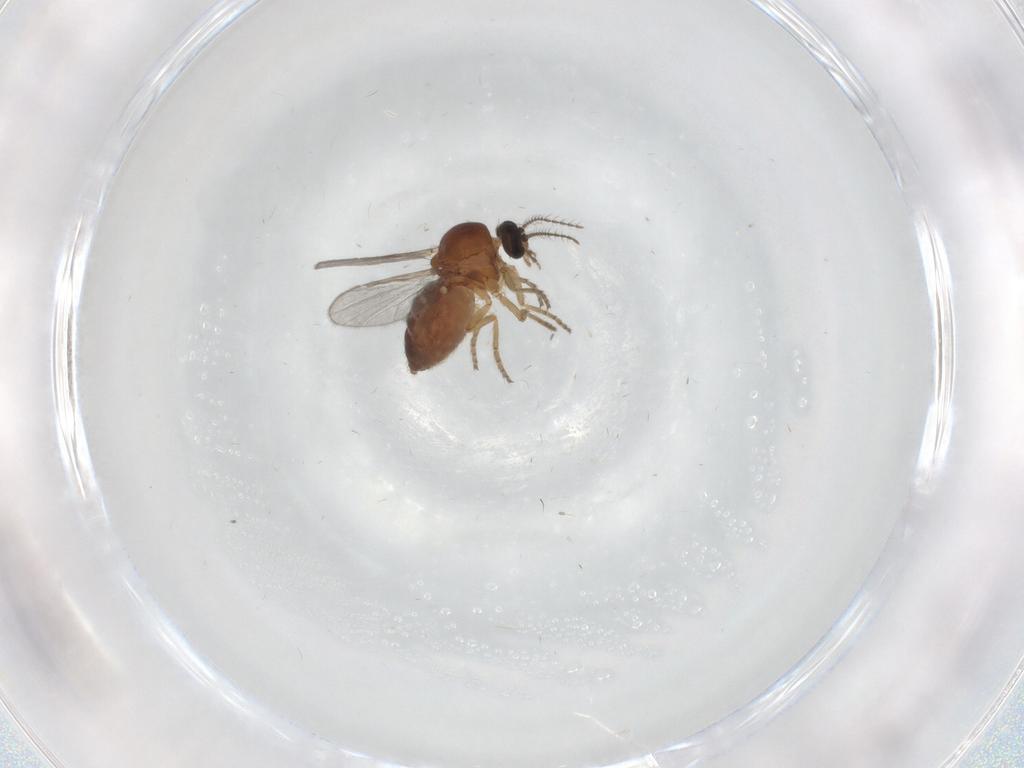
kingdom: Animalia
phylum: Arthropoda
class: Insecta
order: Diptera
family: Ceratopogonidae
